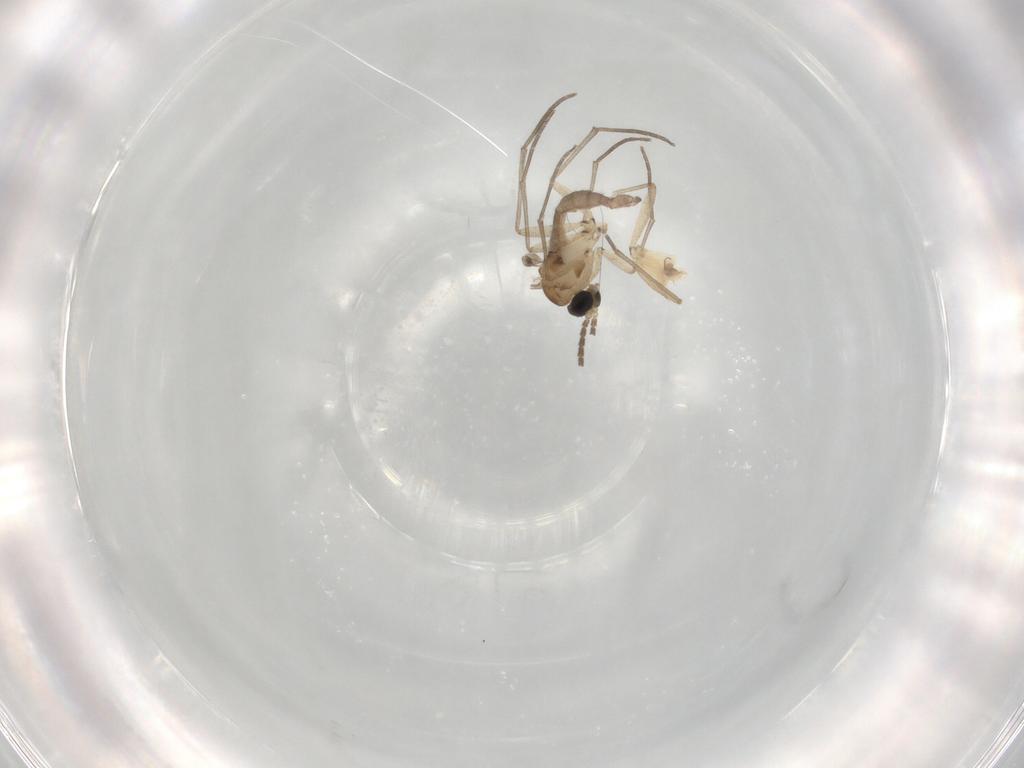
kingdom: Animalia
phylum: Arthropoda
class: Insecta
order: Diptera
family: Sciaridae
